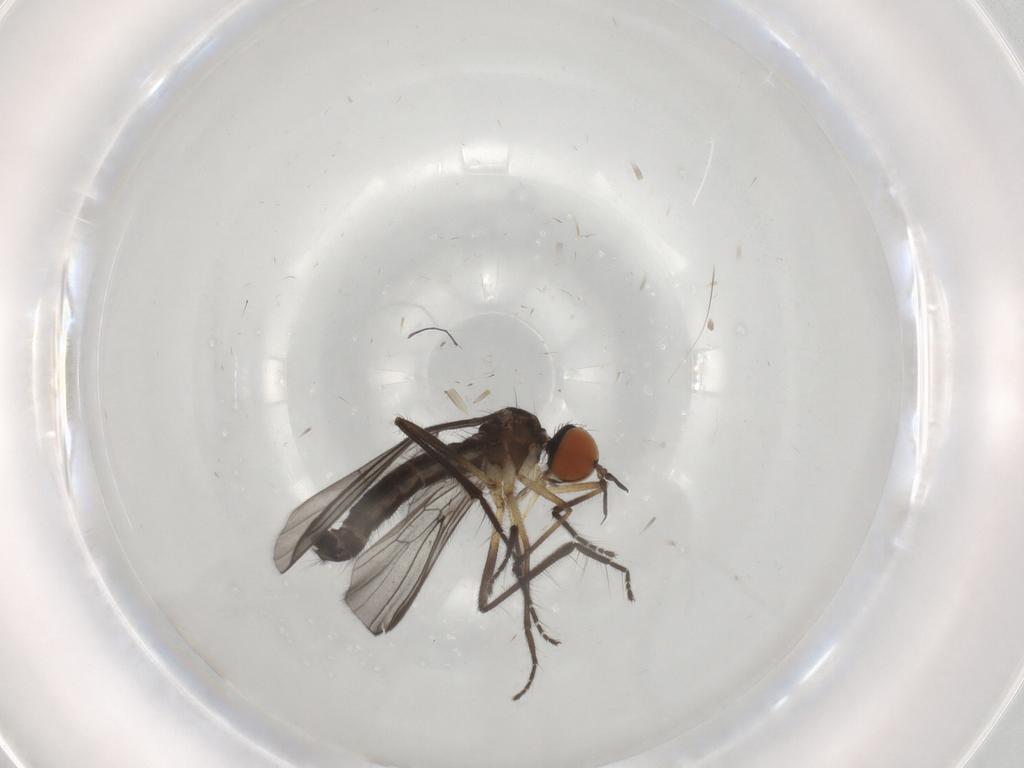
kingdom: Animalia
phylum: Arthropoda
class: Insecta
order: Diptera
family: Empididae
